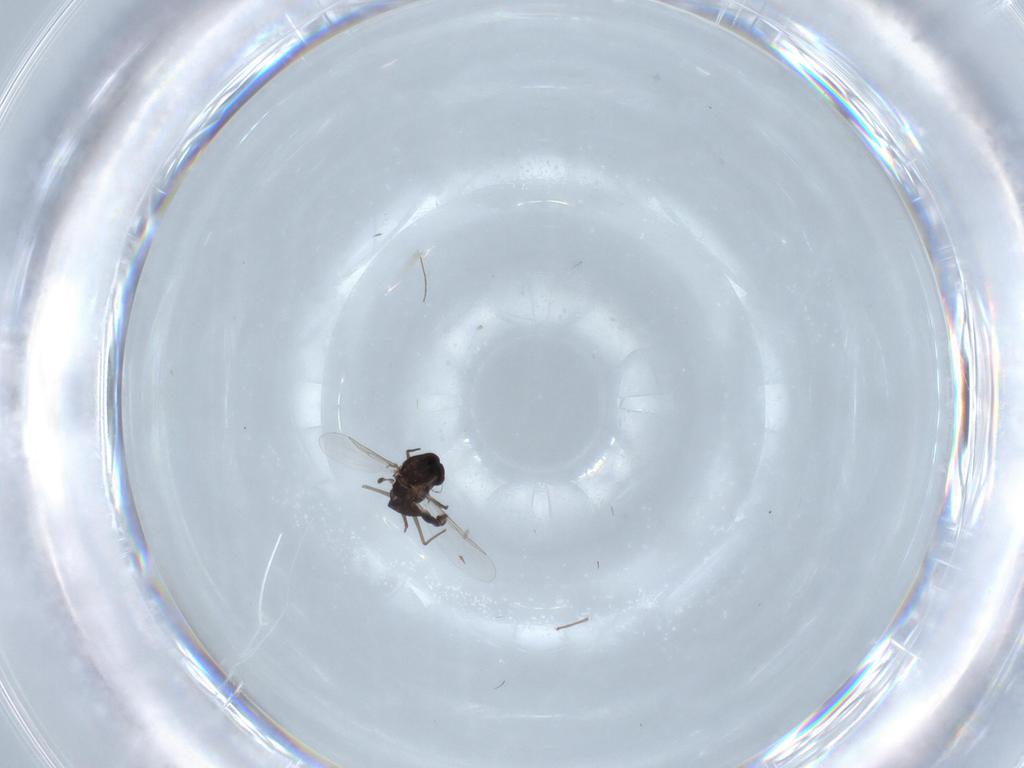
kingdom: Animalia
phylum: Arthropoda
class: Insecta
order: Diptera
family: Chironomidae
